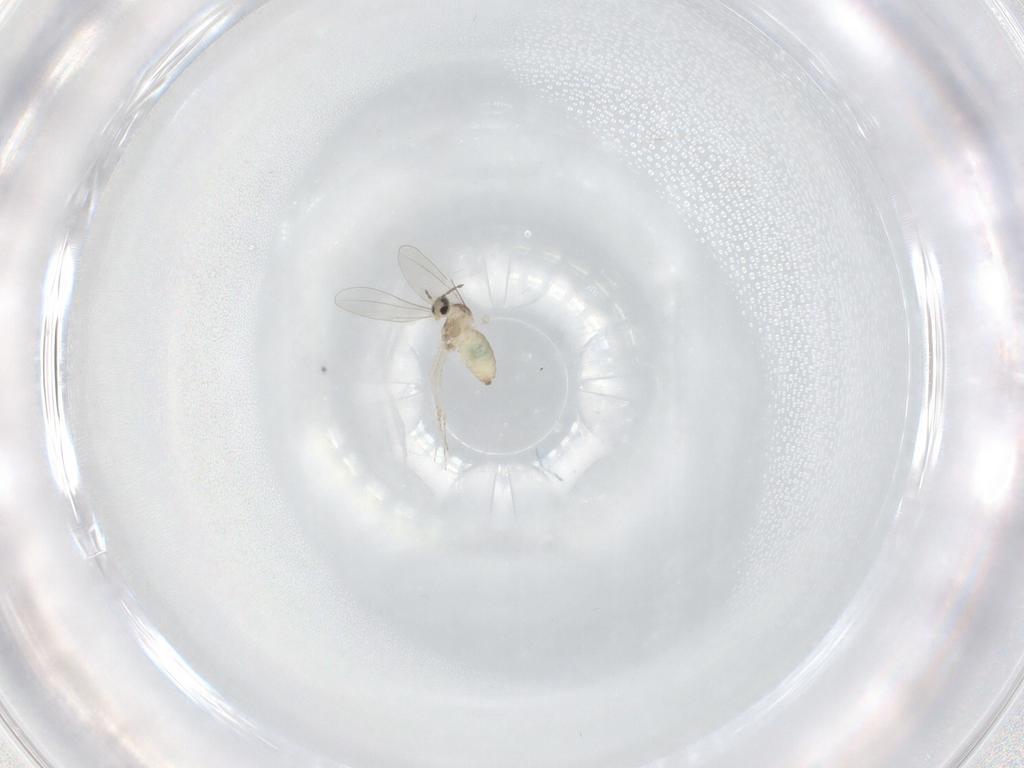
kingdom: Animalia
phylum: Arthropoda
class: Insecta
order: Diptera
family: Cecidomyiidae
